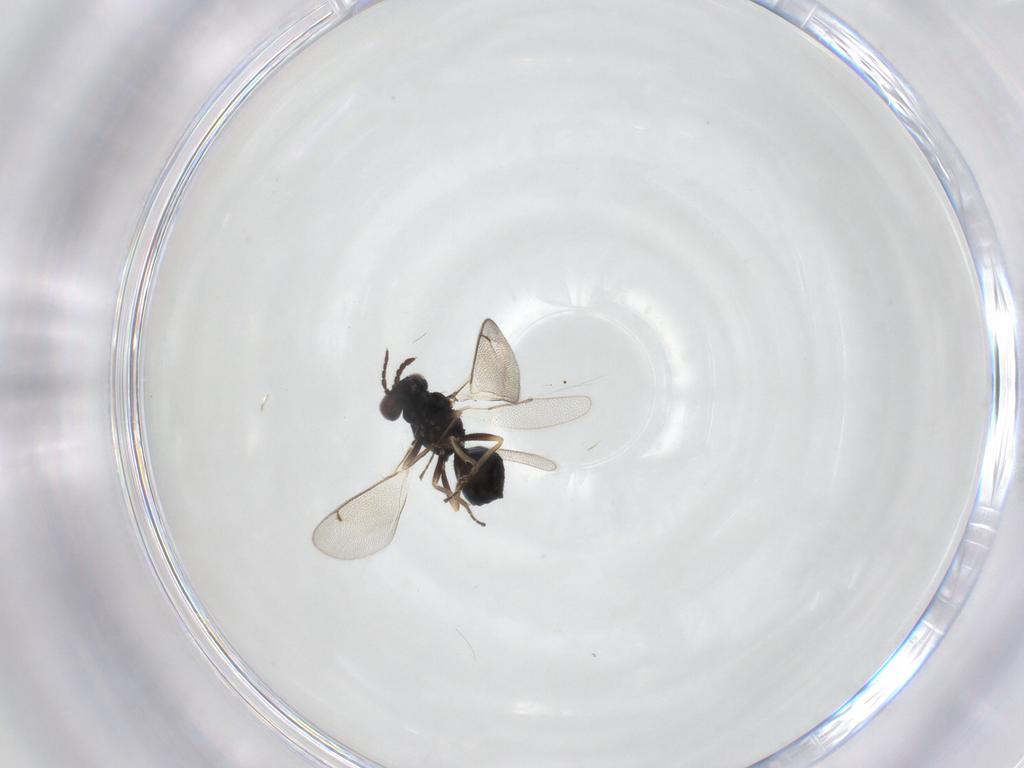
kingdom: Animalia
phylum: Arthropoda
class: Insecta
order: Hymenoptera
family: Eulophidae
